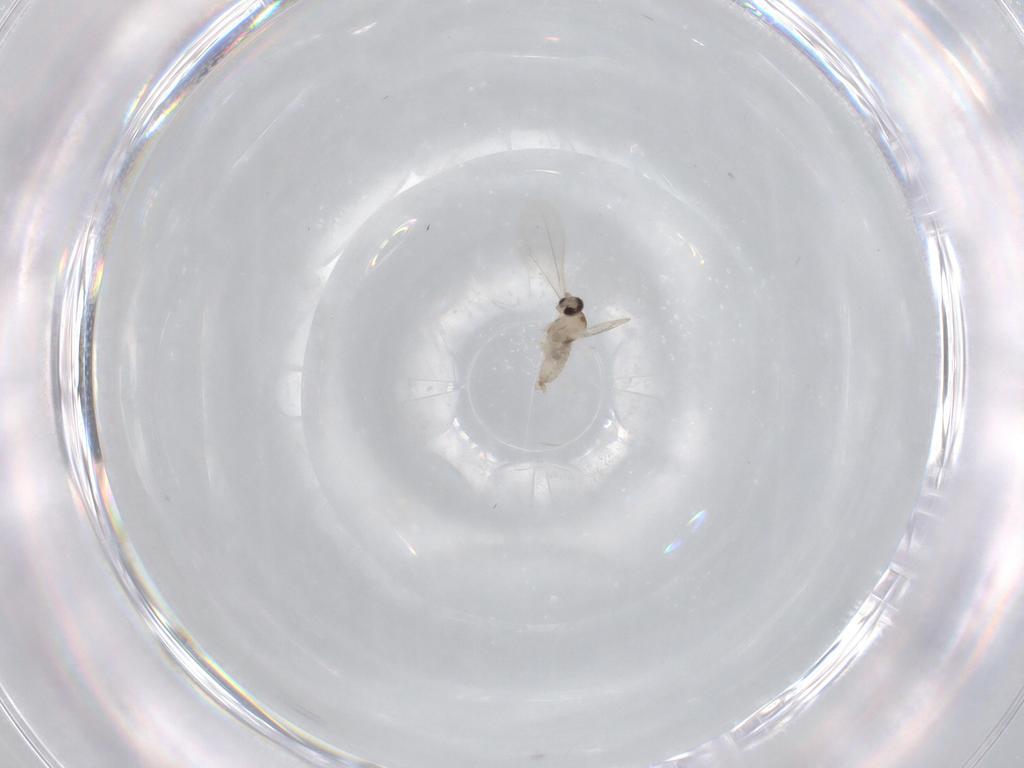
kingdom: Animalia
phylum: Arthropoda
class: Insecta
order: Diptera
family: Cecidomyiidae
